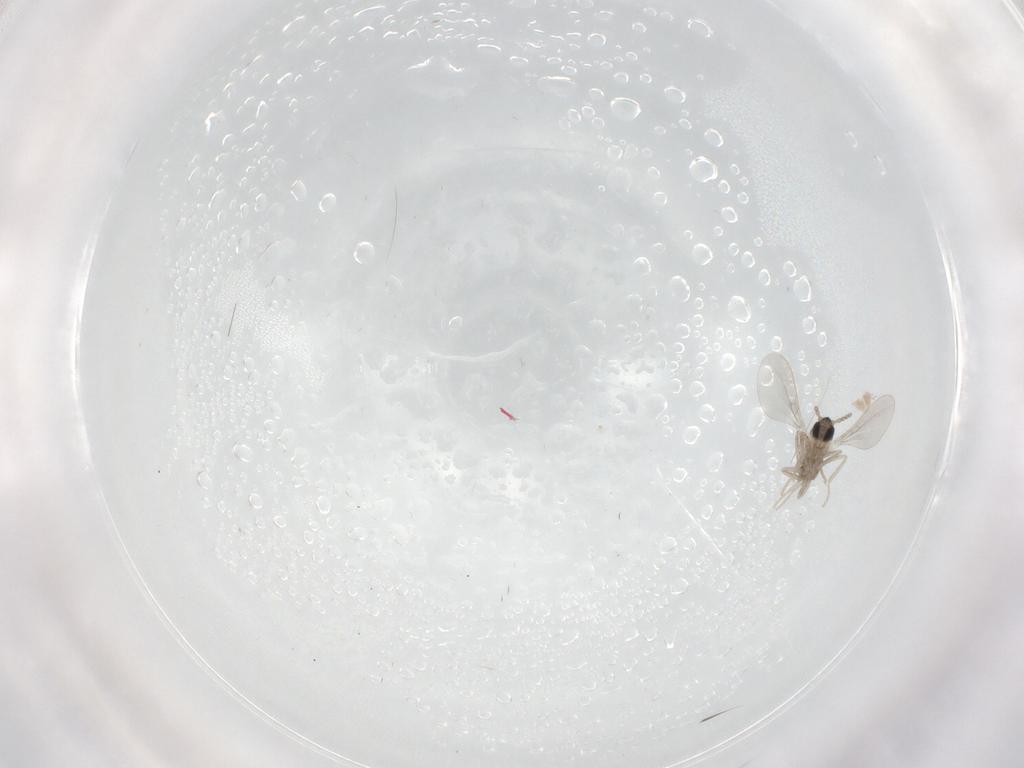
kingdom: Animalia
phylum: Arthropoda
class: Insecta
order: Diptera
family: Cecidomyiidae
